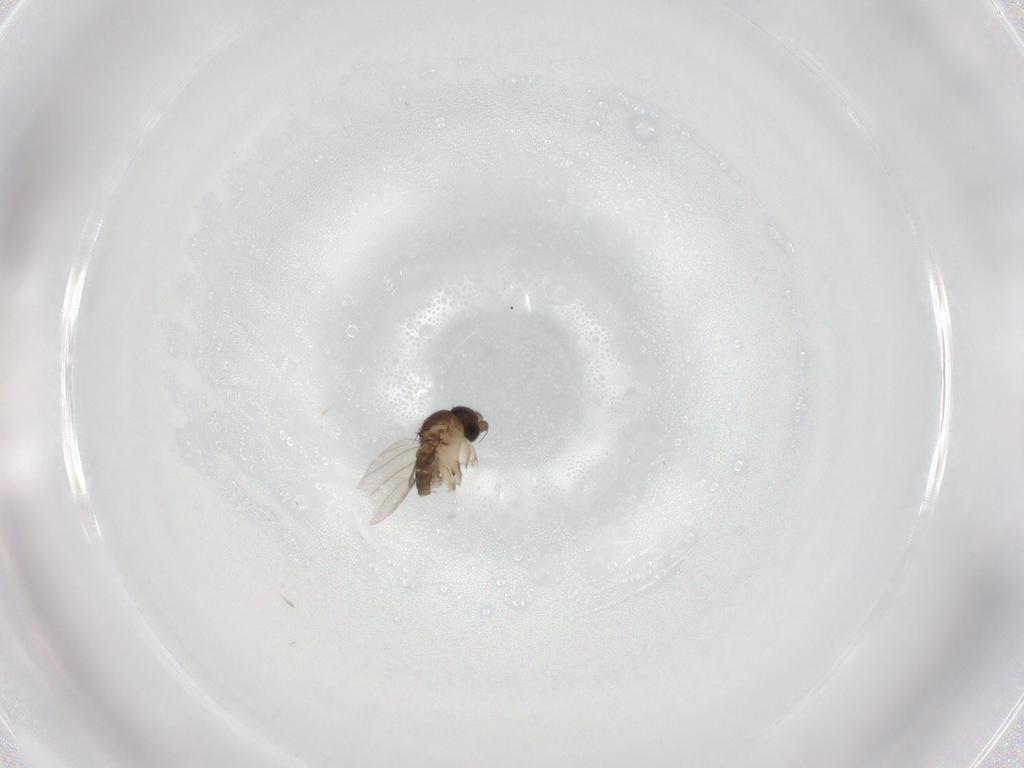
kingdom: Animalia
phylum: Arthropoda
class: Insecta
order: Diptera
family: Phoridae
